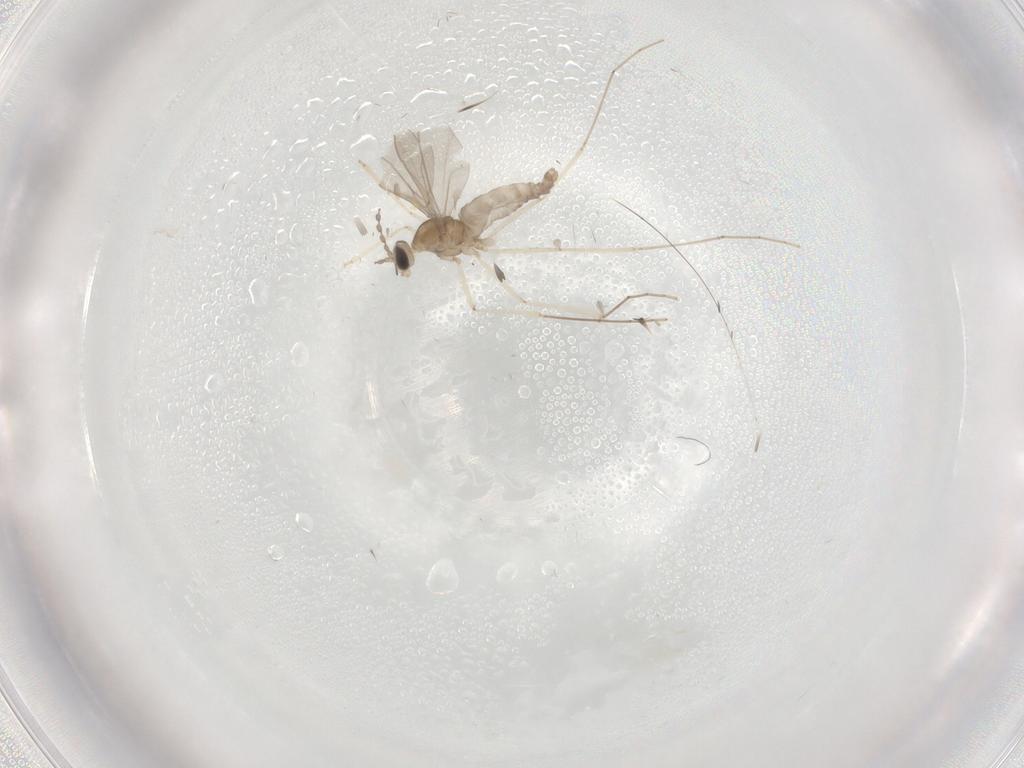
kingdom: Animalia
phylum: Arthropoda
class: Insecta
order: Diptera
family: Cecidomyiidae
